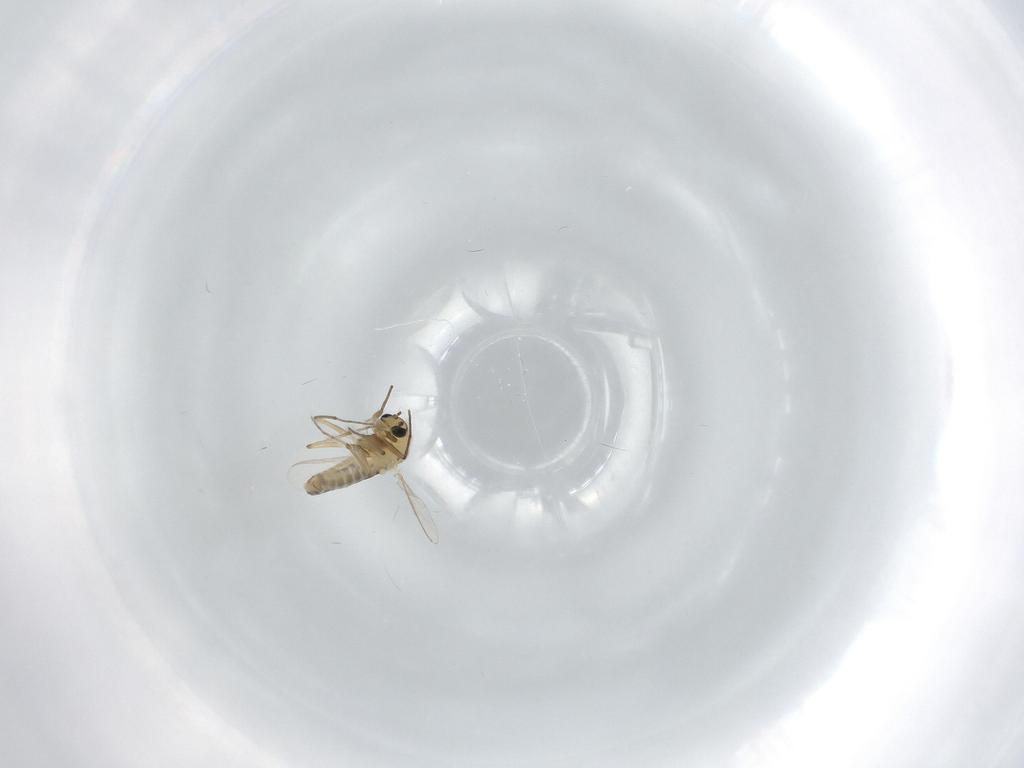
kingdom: Animalia
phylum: Arthropoda
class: Insecta
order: Diptera
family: Chironomidae
